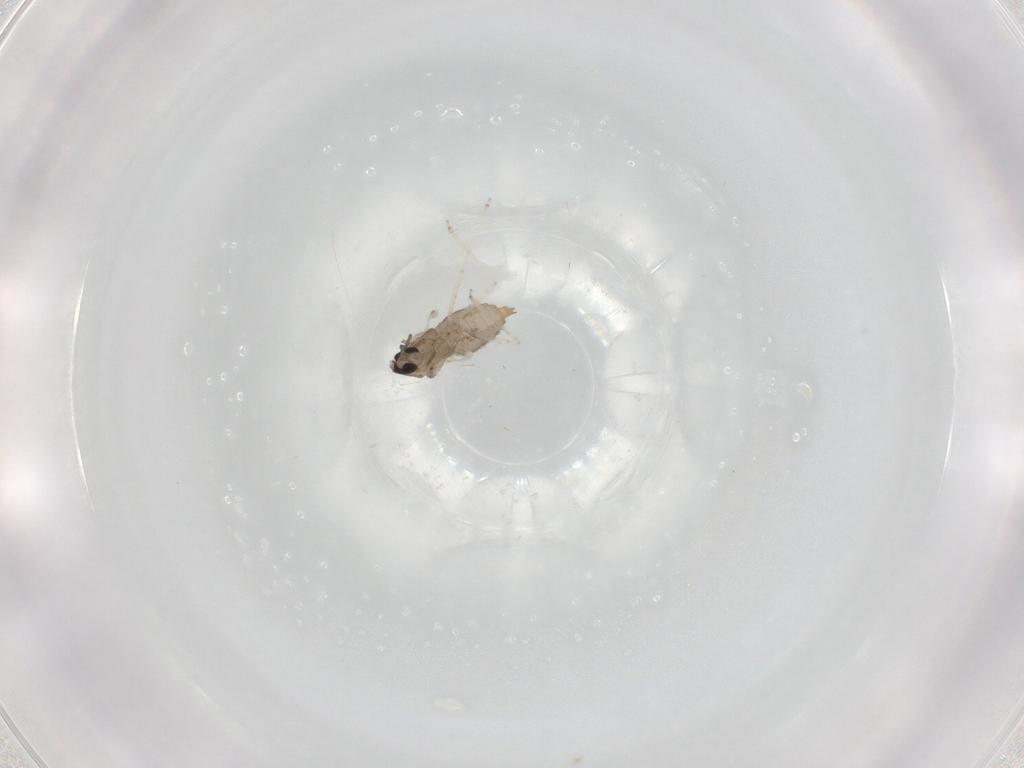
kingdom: Animalia
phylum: Arthropoda
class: Insecta
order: Diptera
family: Cecidomyiidae
